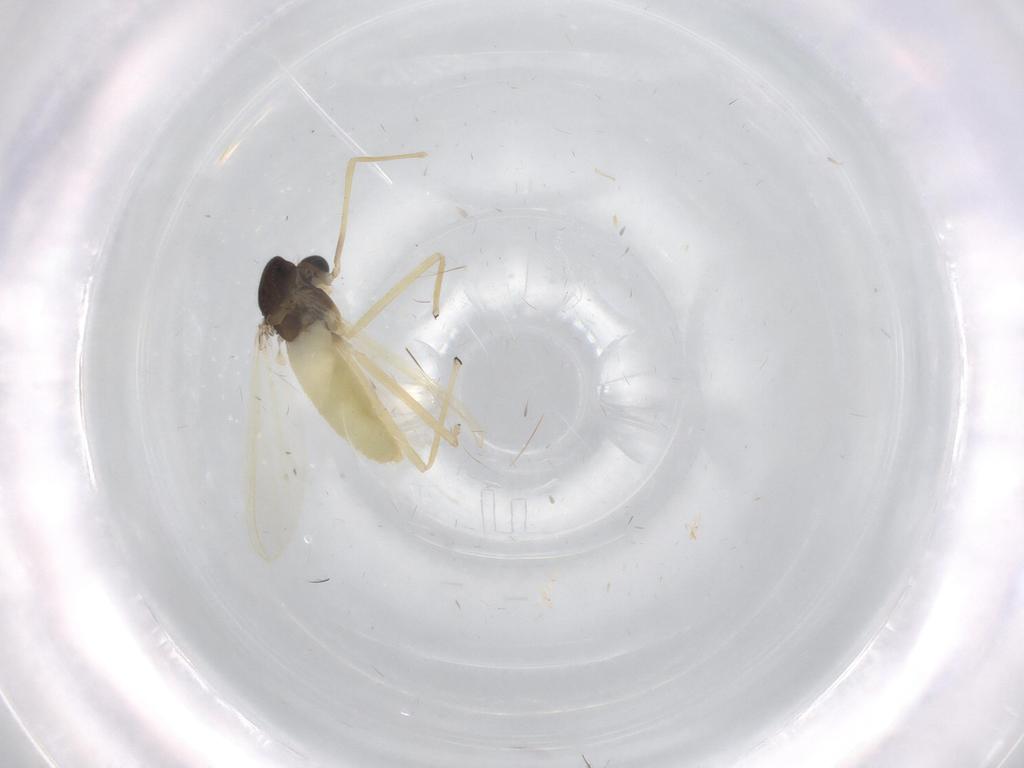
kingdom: Animalia
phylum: Arthropoda
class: Insecta
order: Diptera
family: Chironomidae
